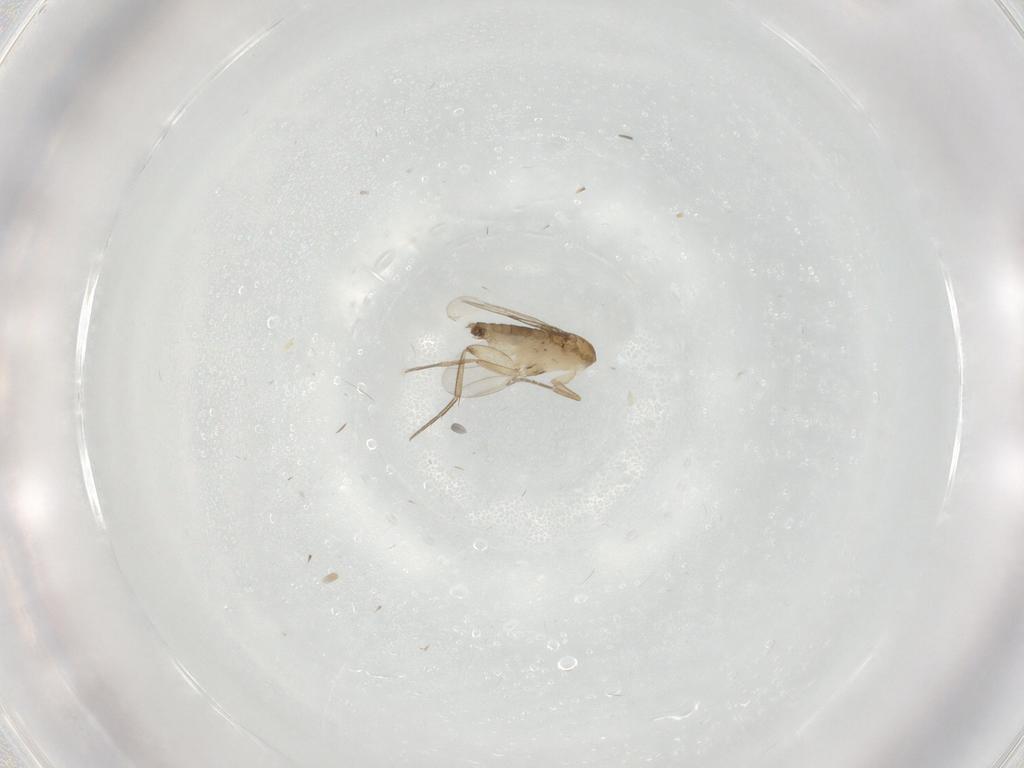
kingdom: Animalia
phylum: Arthropoda
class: Insecta
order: Diptera
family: Phoridae
